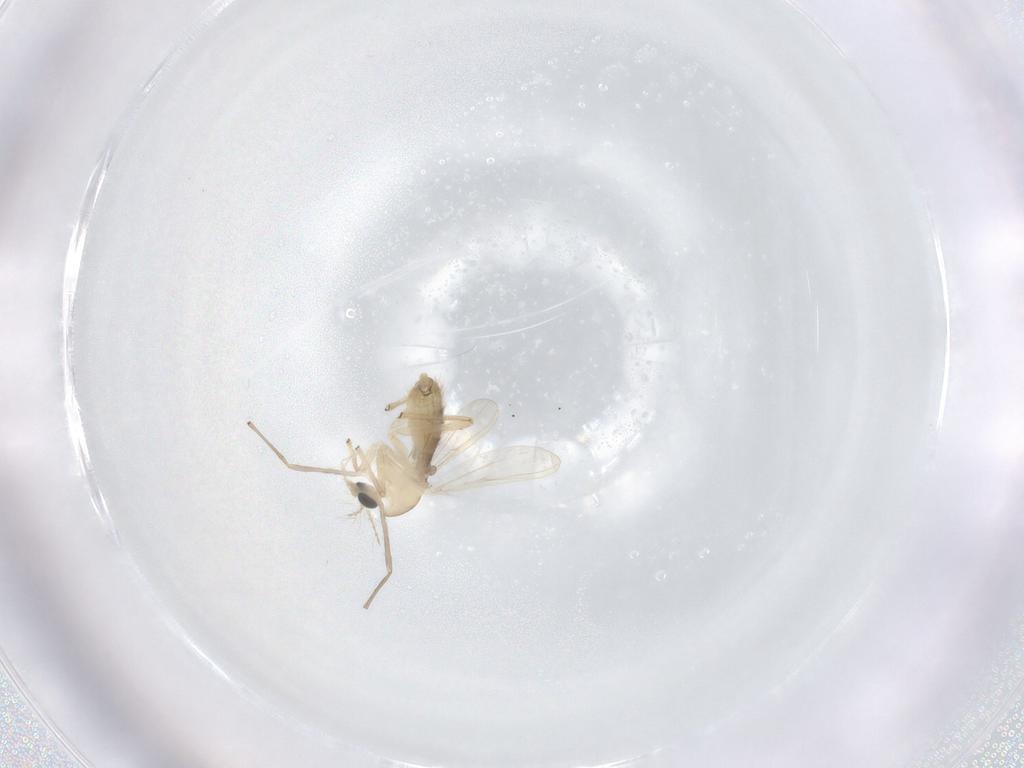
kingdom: Animalia
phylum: Arthropoda
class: Insecta
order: Diptera
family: Chironomidae
